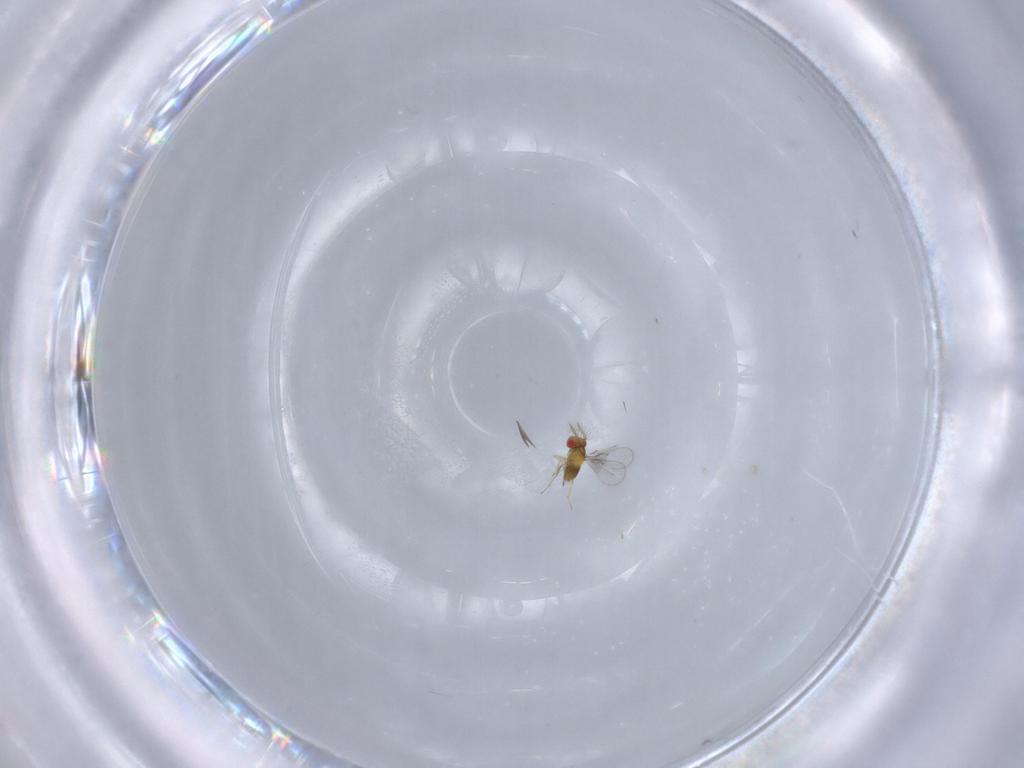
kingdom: Animalia
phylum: Arthropoda
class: Insecta
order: Hymenoptera
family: Trichogrammatidae
